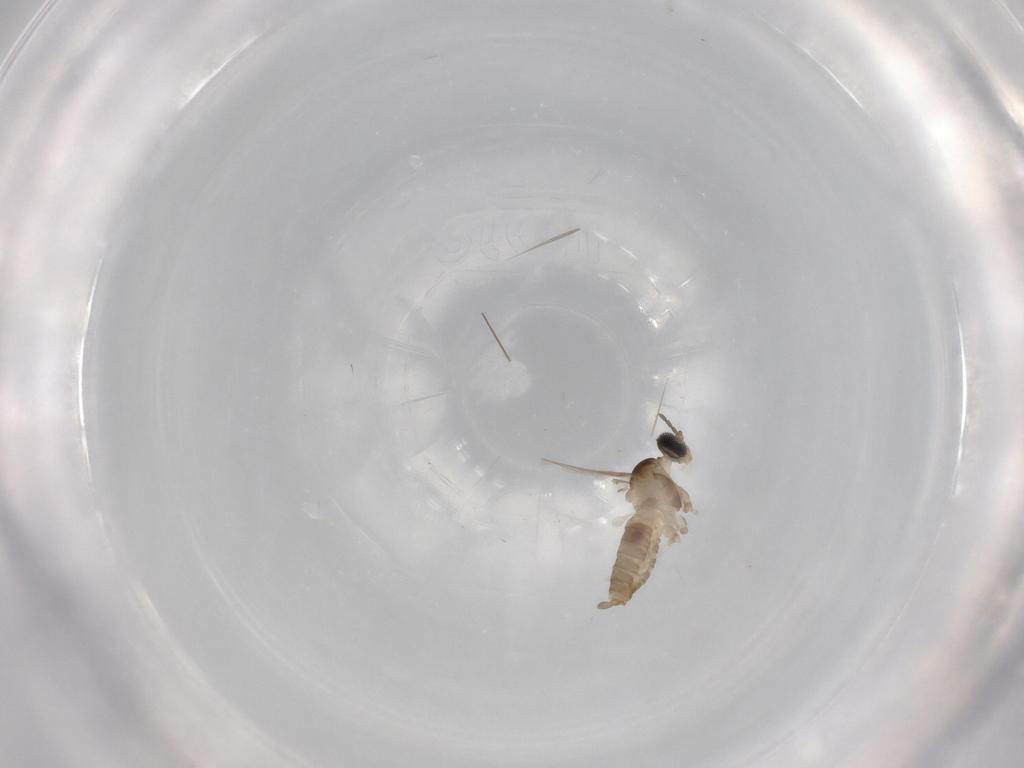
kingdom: Animalia
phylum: Arthropoda
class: Insecta
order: Diptera
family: Cecidomyiidae
